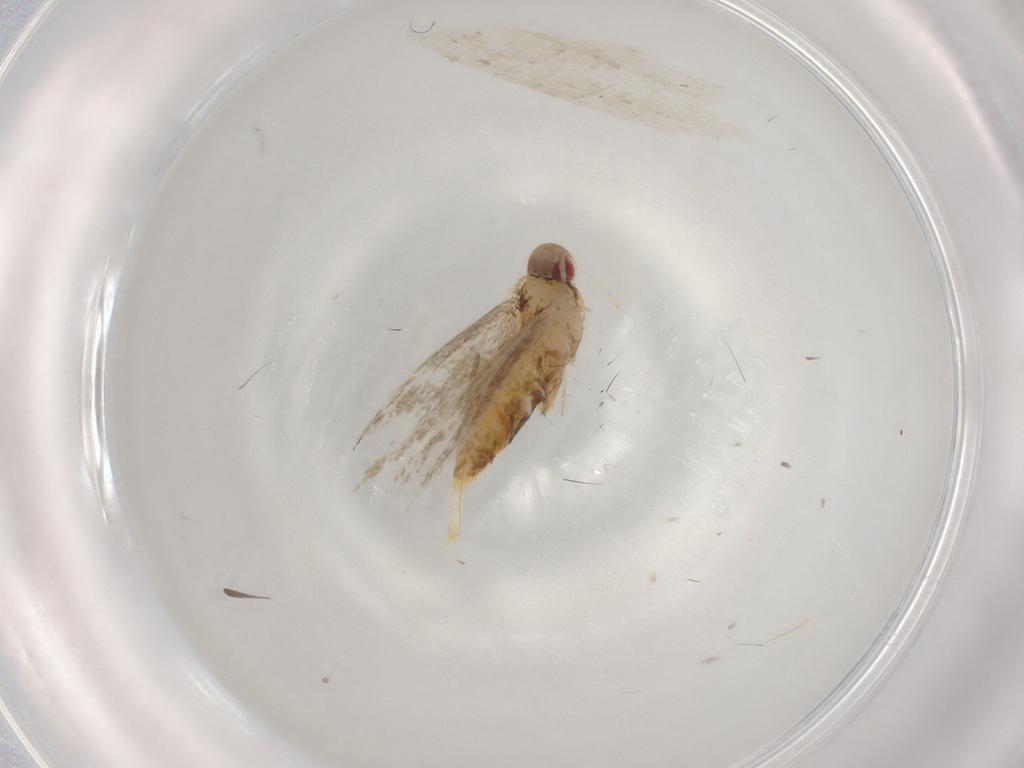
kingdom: Animalia
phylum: Arthropoda
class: Insecta
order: Lepidoptera
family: Cosmopterigidae
